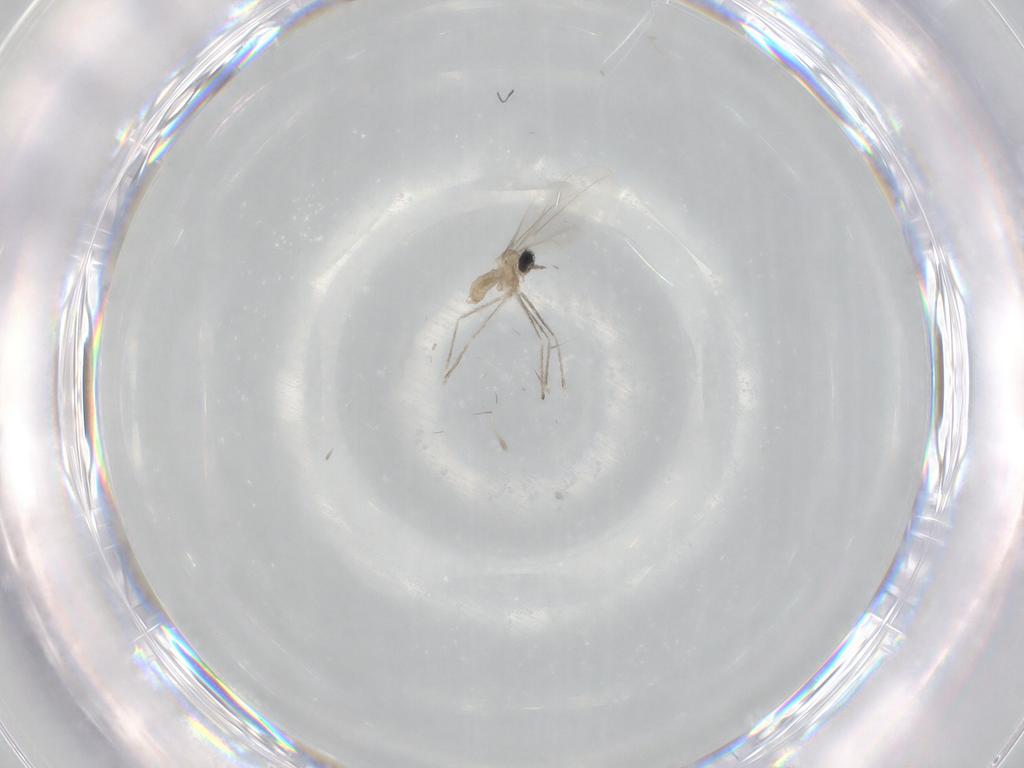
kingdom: Animalia
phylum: Arthropoda
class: Insecta
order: Diptera
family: Cecidomyiidae
